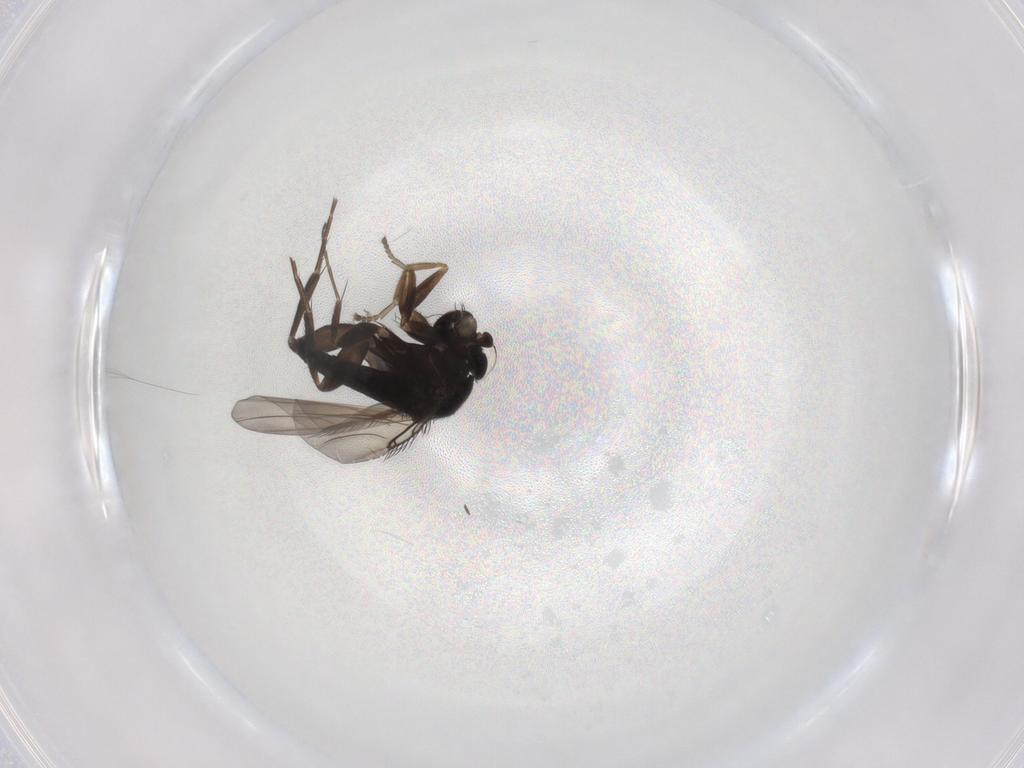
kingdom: Animalia
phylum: Arthropoda
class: Insecta
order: Diptera
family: Phoridae
